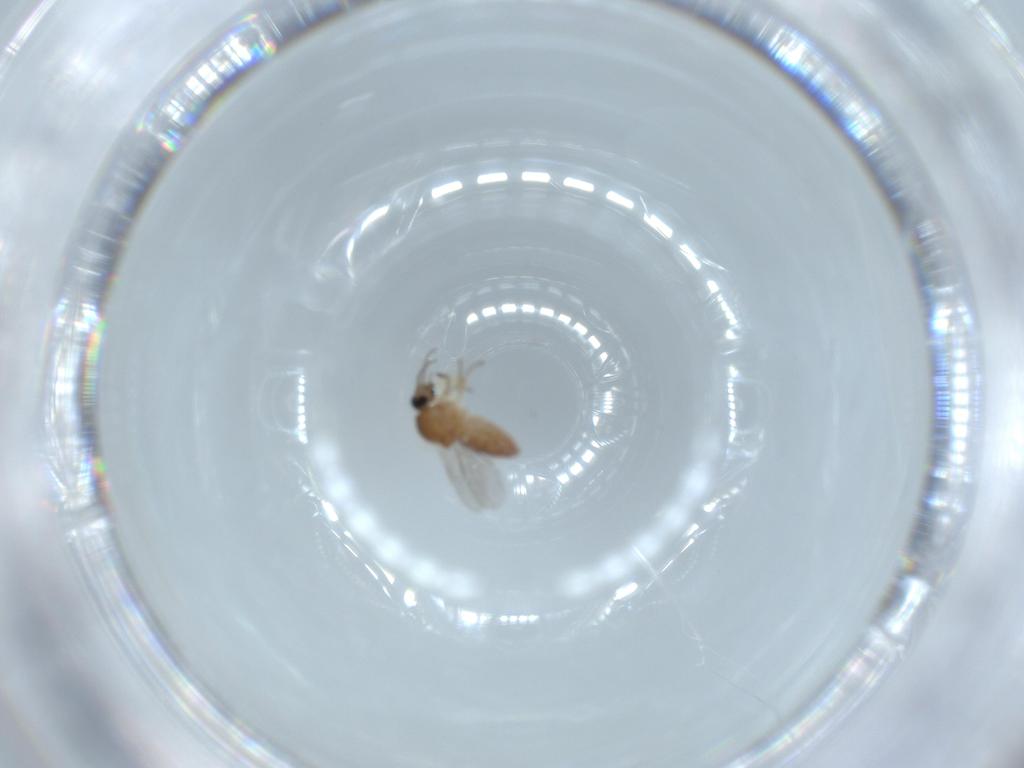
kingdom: Animalia
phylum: Arthropoda
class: Insecta
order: Diptera
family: Ceratopogonidae
